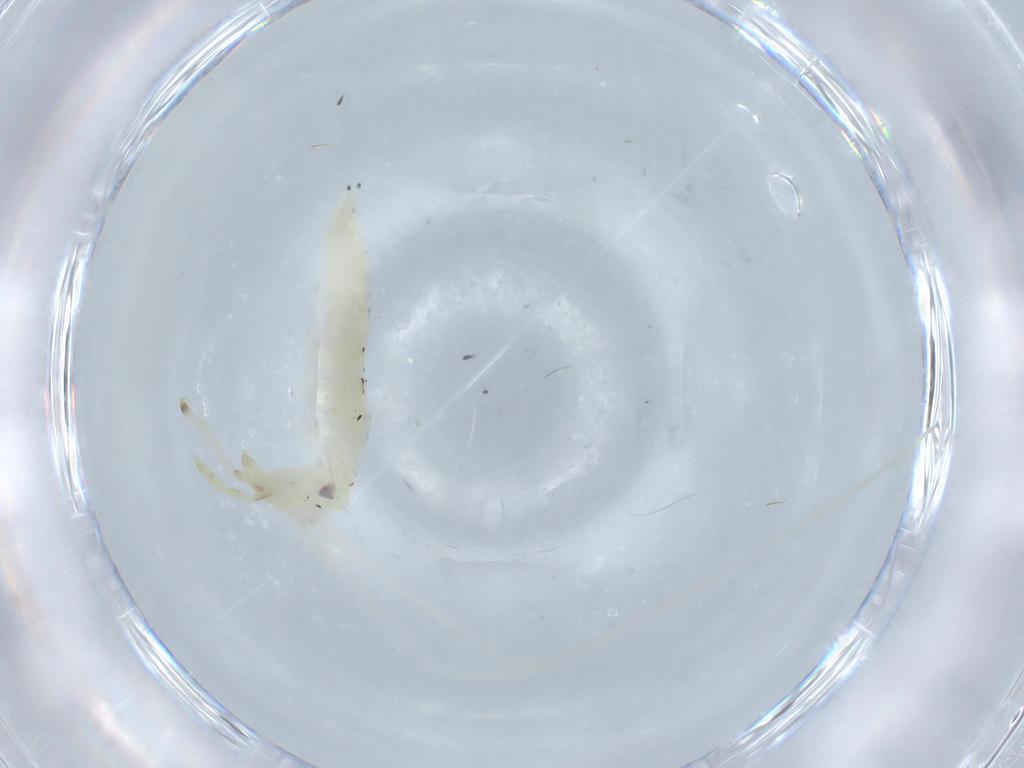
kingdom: Animalia
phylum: Arthropoda
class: Insecta
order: Orthoptera
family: Oecanthidae
